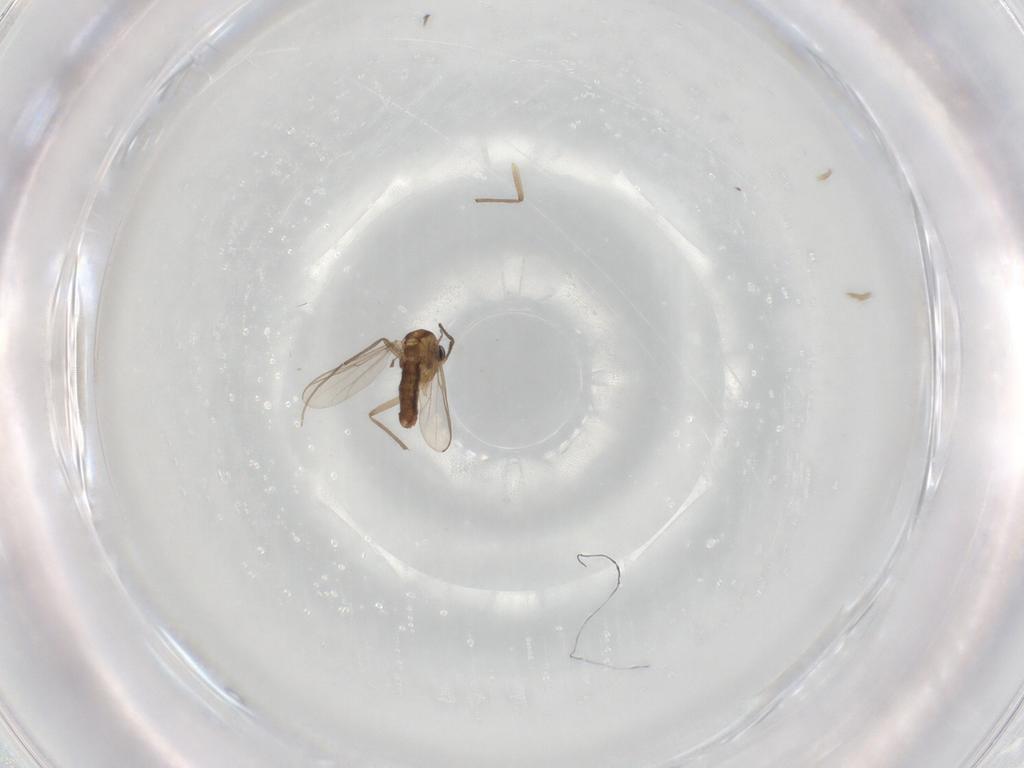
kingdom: Animalia
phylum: Arthropoda
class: Insecta
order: Diptera
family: Chironomidae
